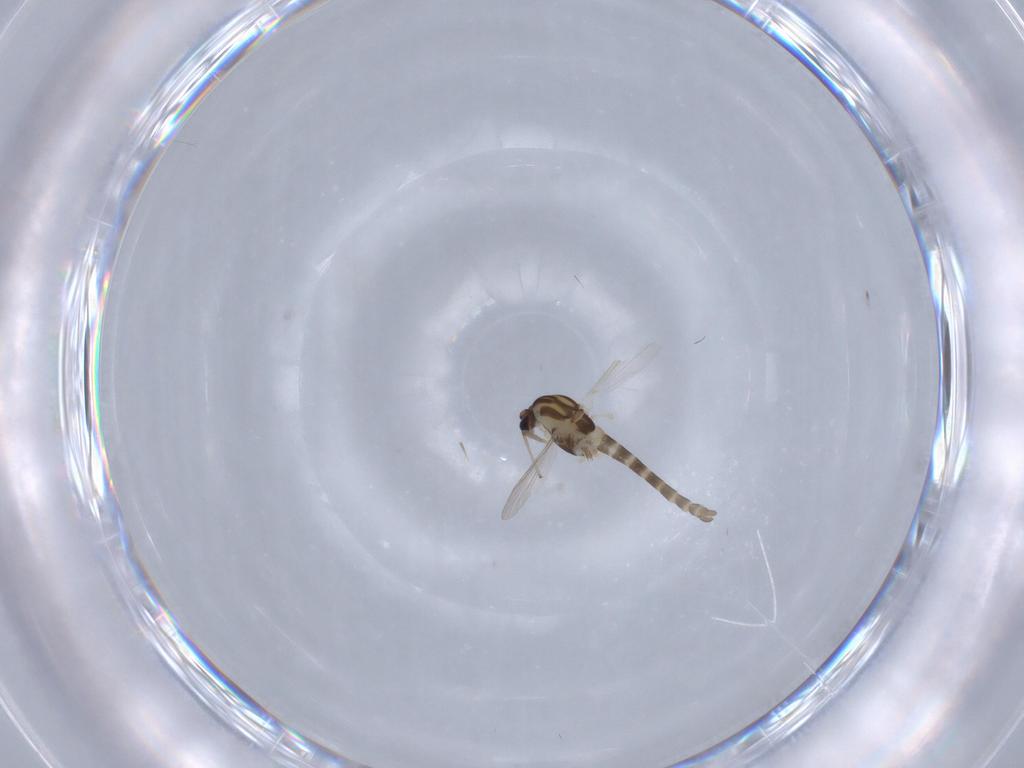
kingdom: Animalia
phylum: Arthropoda
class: Insecta
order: Diptera
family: Chironomidae
